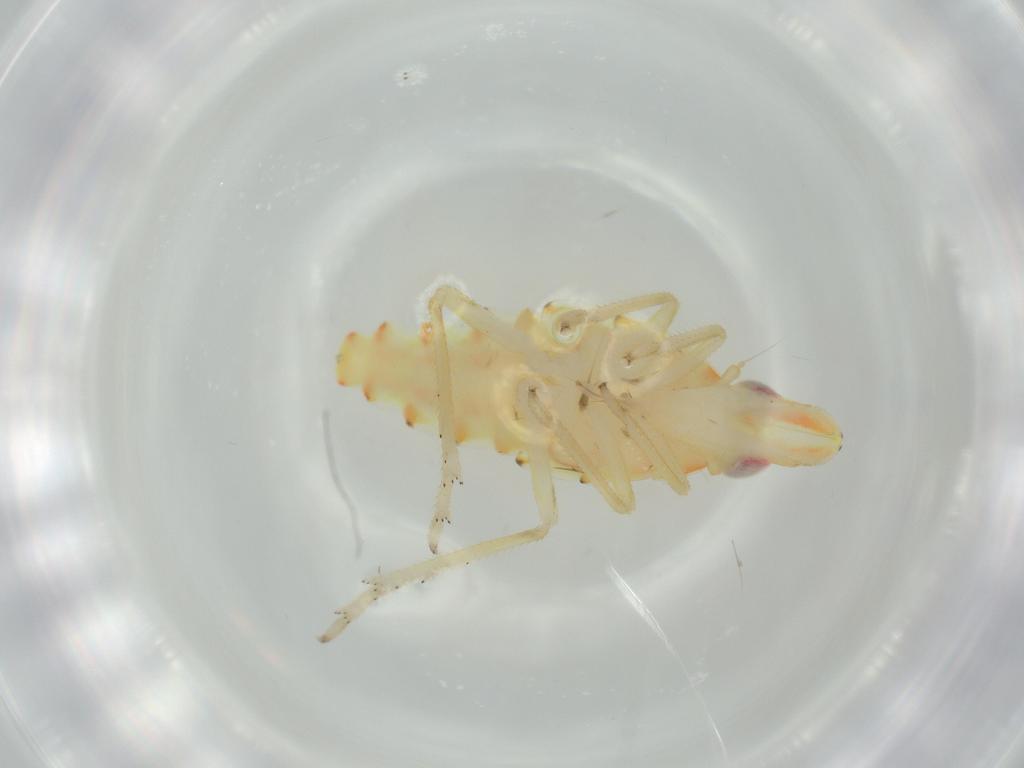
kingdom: Animalia
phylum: Arthropoda
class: Insecta
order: Hemiptera
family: Tropiduchidae
